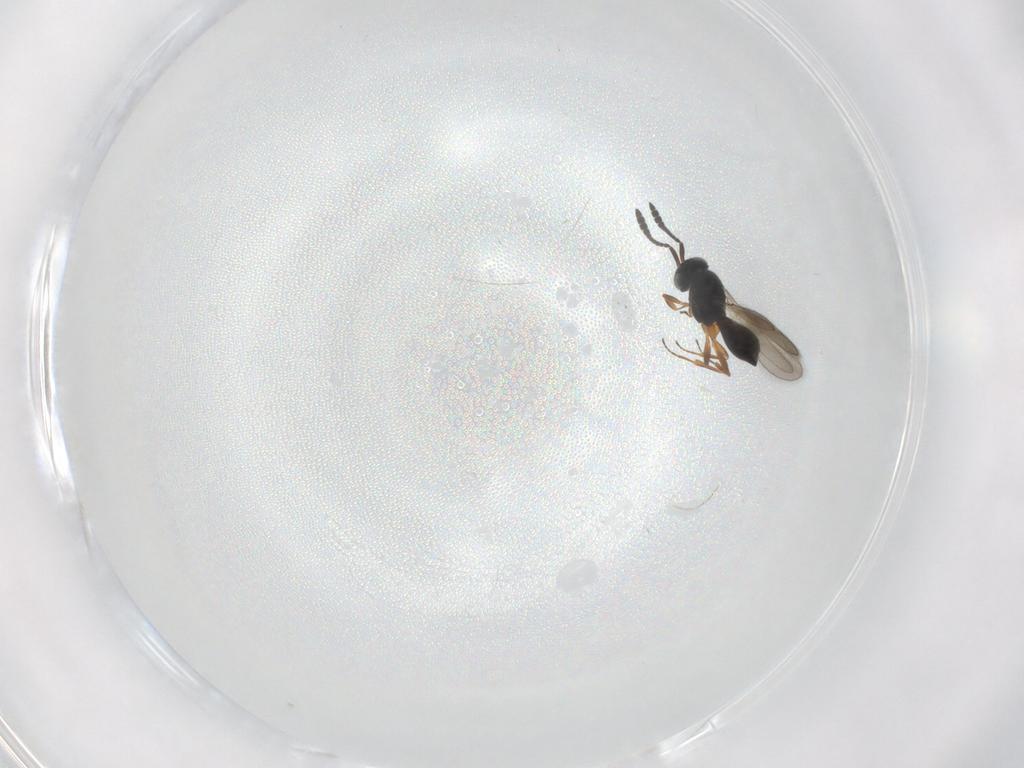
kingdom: Animalia
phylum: Arthropoda
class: Insecta
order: Hymenoptera
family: Scelionidae
